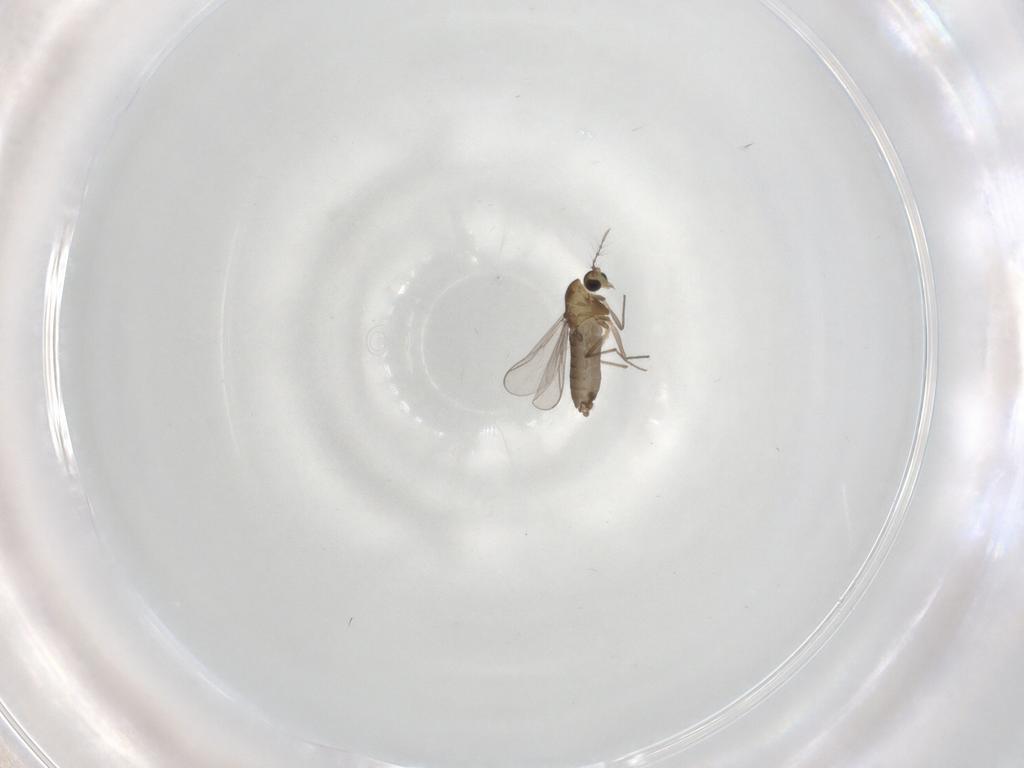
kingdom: Animalia
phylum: Arthropoda
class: Insecta
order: Diptera
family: Chironomidae
